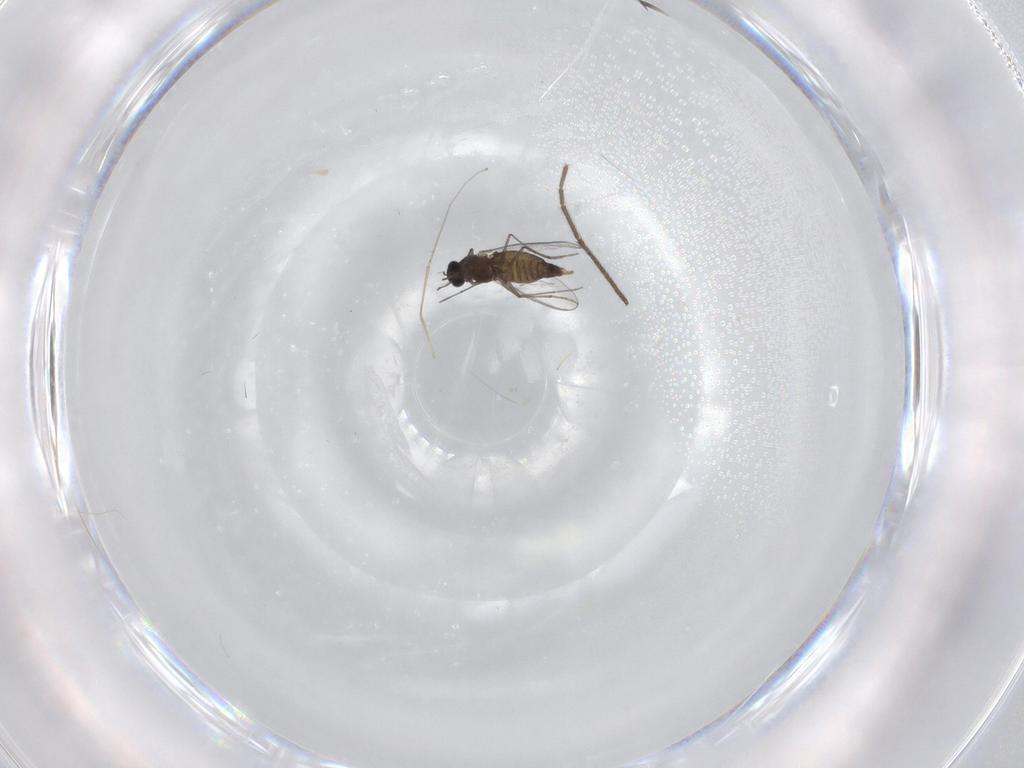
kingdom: Animalia
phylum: Arthropoda
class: Insecta
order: Diptera
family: Chironomidae
